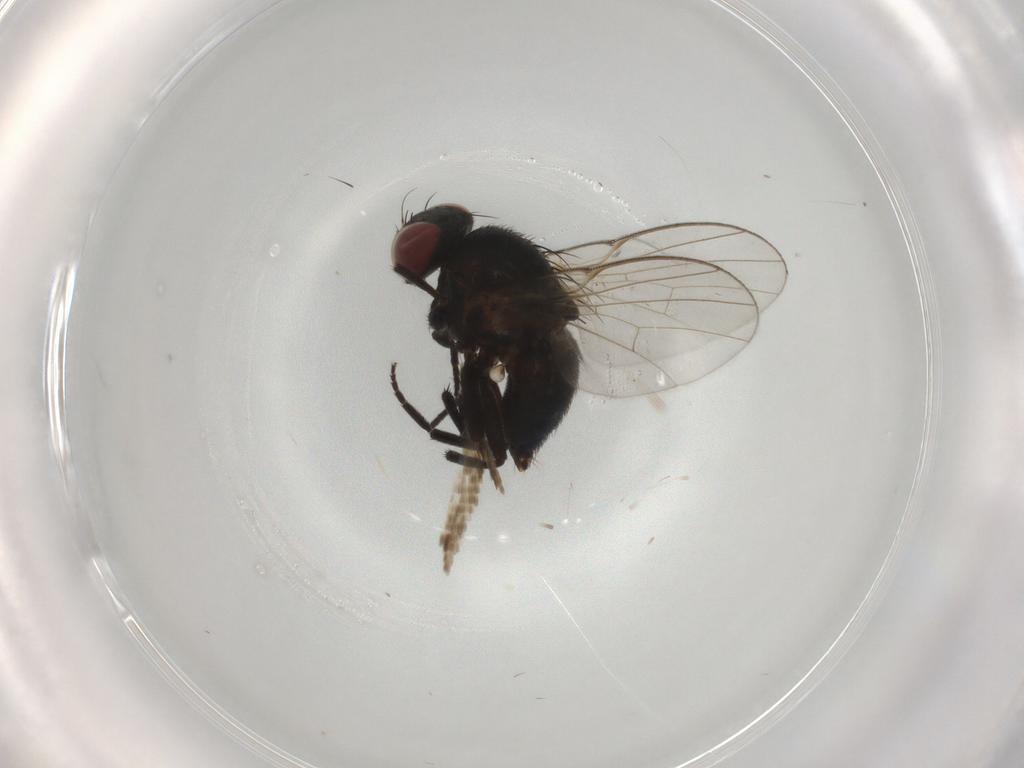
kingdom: Animalia
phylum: Arthropoda
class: Insecta
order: Diptera
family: Agromyzidae
